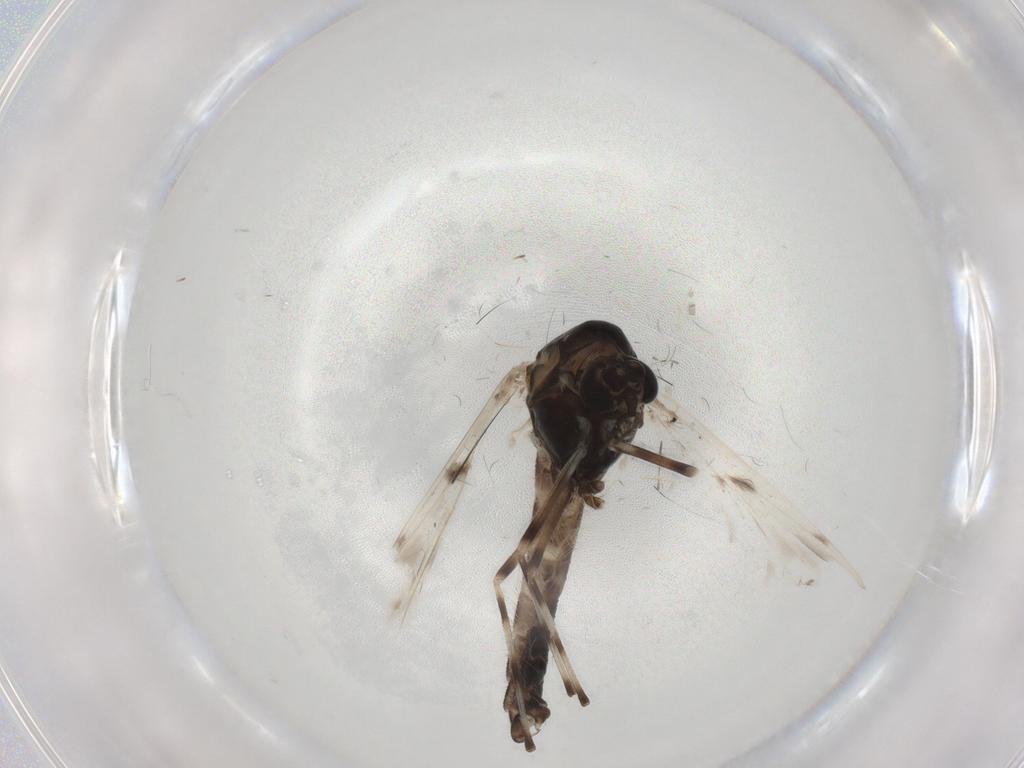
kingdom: Animalia
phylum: Arthropoda
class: Insecta
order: Diptera
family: Chironomidae
